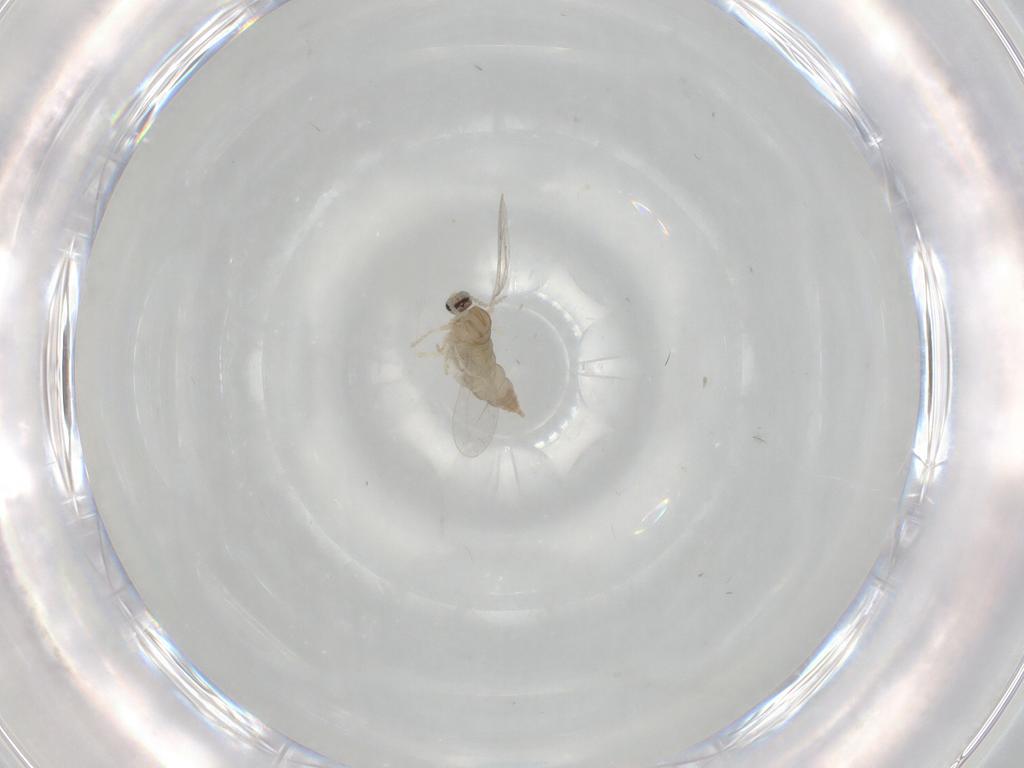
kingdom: Animalia
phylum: Arthropoda
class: Insecta
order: Diptera
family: Cecidomyiidae
